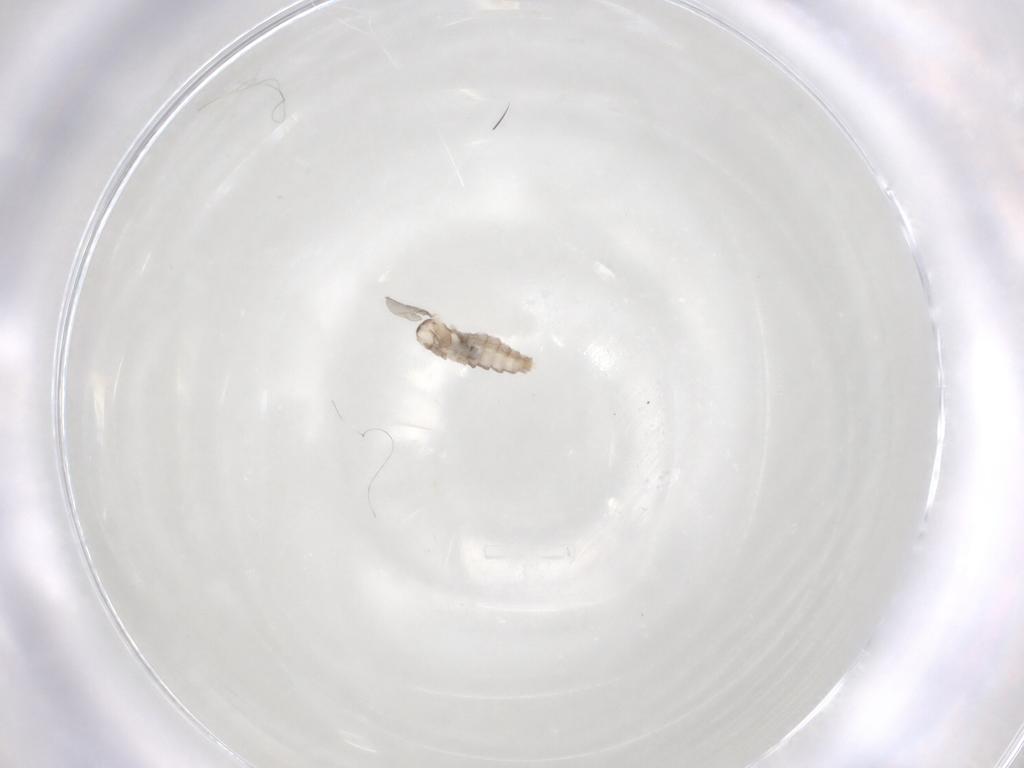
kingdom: Animalia
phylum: Arthropoda
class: Insecta
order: Diptera
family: Cecidomyiidae
